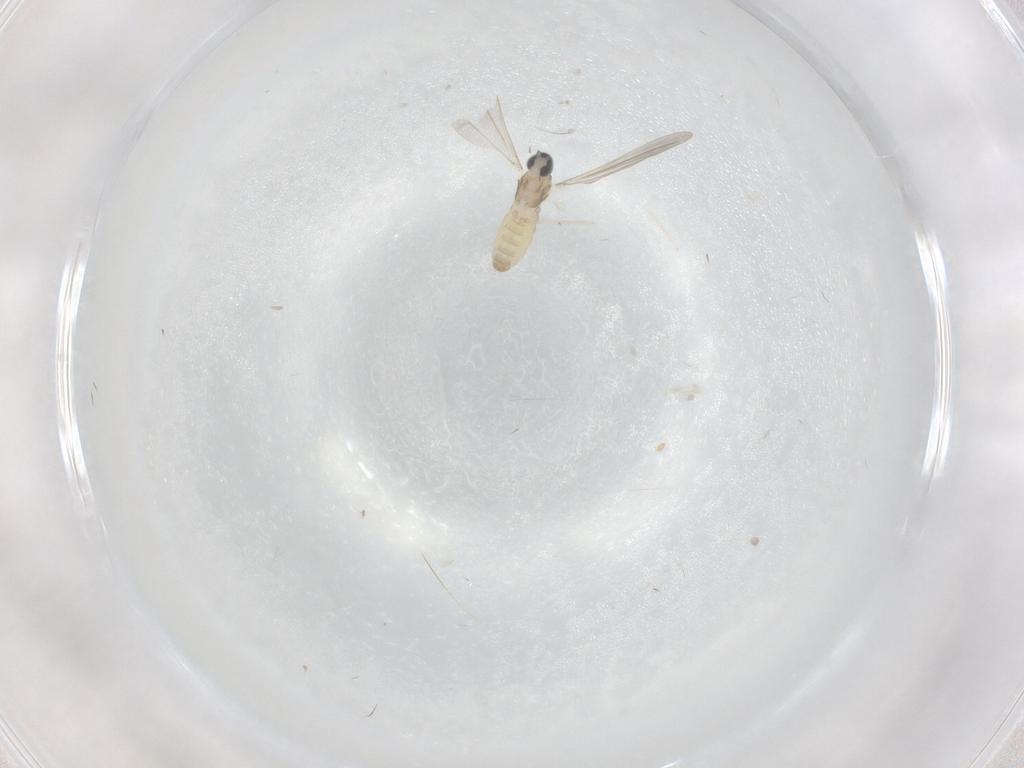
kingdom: Animalia
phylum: Arthropoda
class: Insecta
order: Diptera
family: Cecidomyiidae
